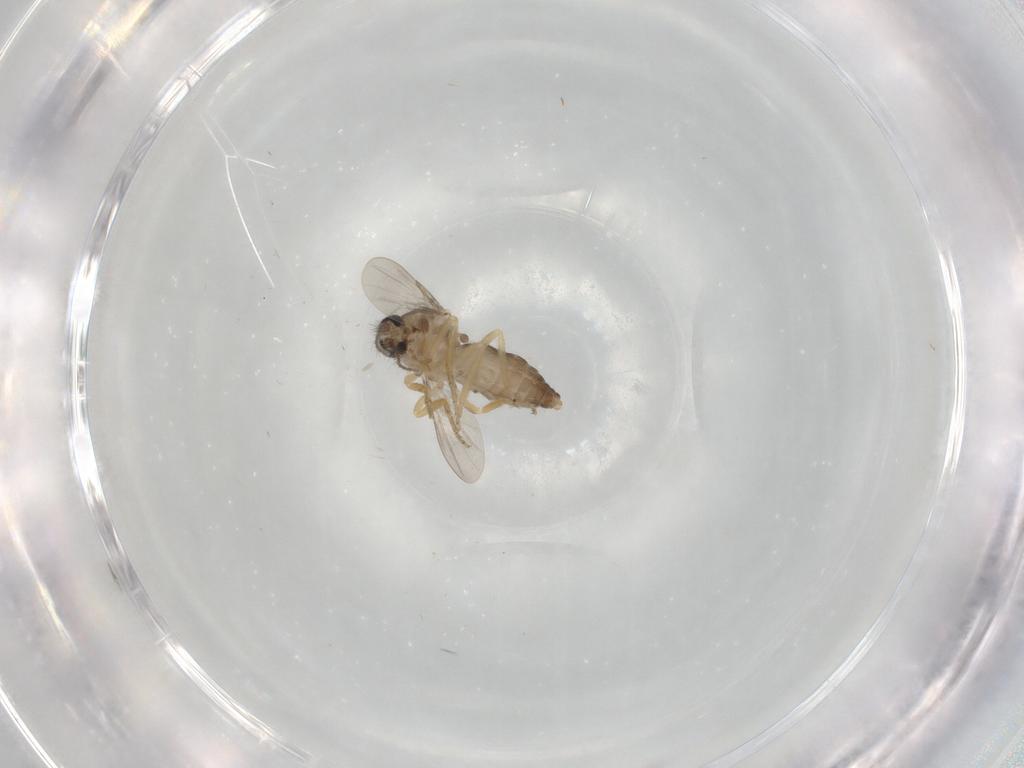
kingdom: Animalia
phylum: Arthropoda
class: Insecta
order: Diptera
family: Ceratopogonidae
